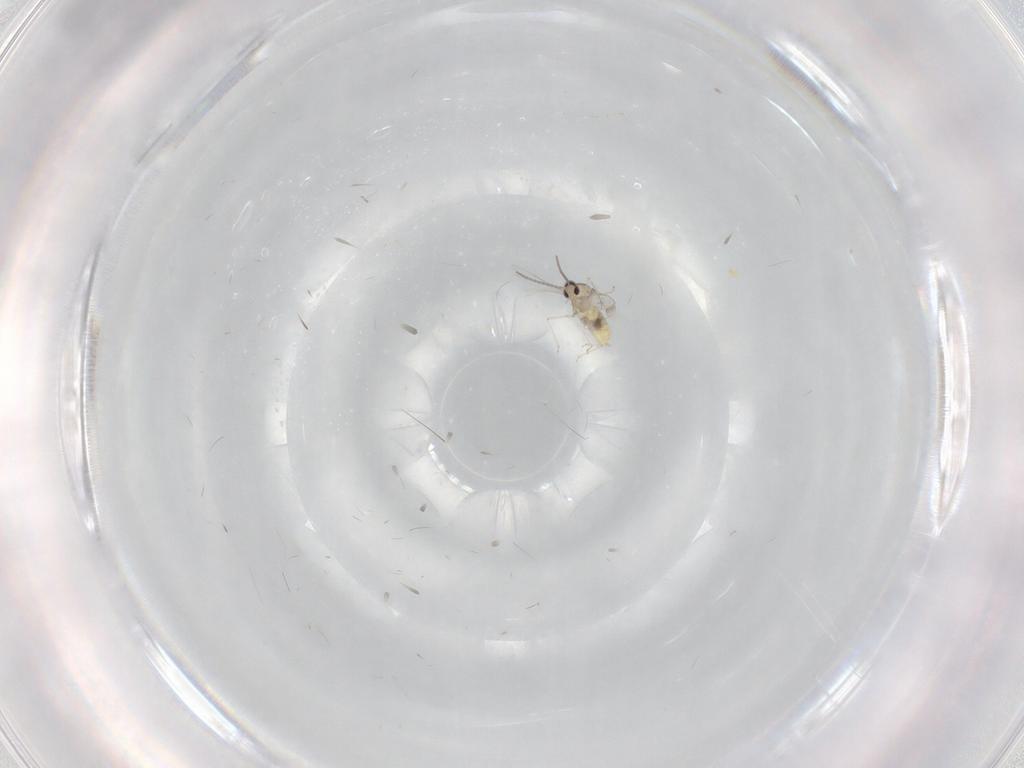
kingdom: Animalia
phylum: Arthropoda
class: Insecta
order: Diptera
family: Cecidomyiidae
